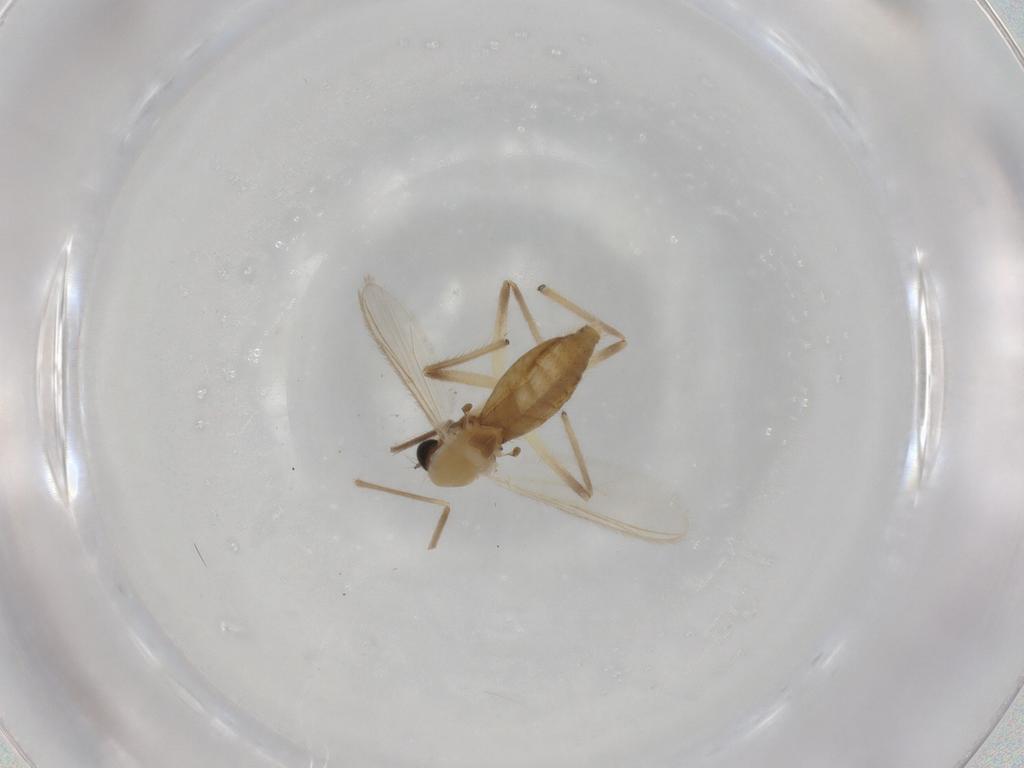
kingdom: Animalia
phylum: Arthropoda
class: Insecta
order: Diptera
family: Chironomidae
